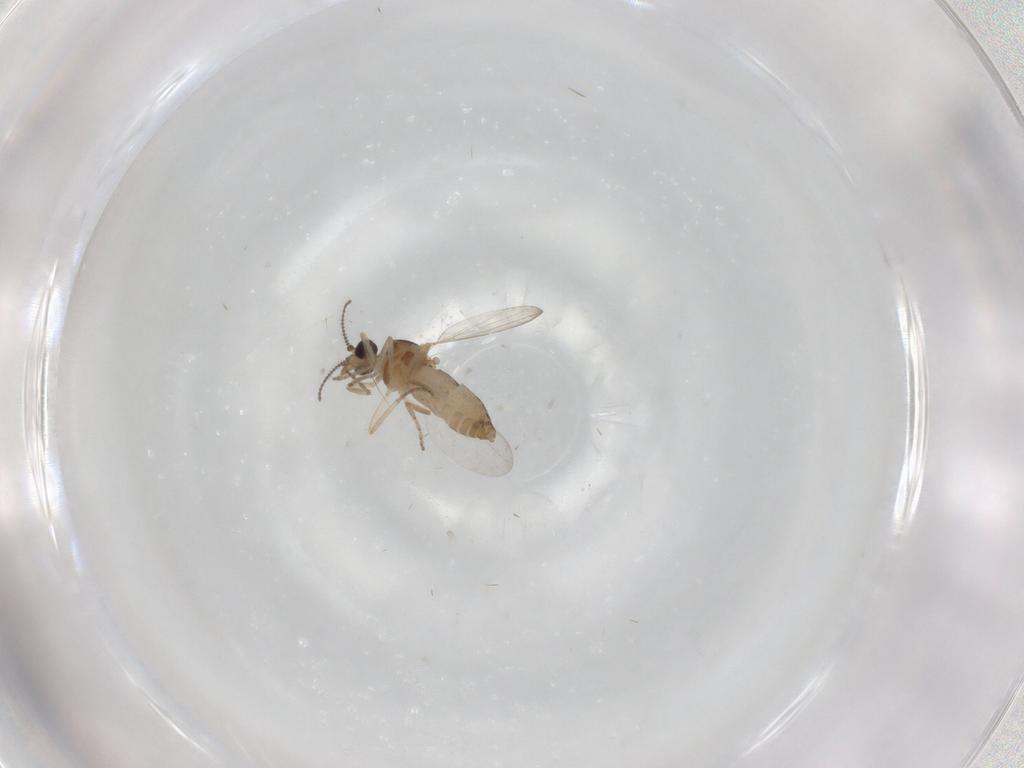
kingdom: Animalia
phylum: Arthropoda
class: Insecta
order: Diptera
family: Ceratopogonidae
